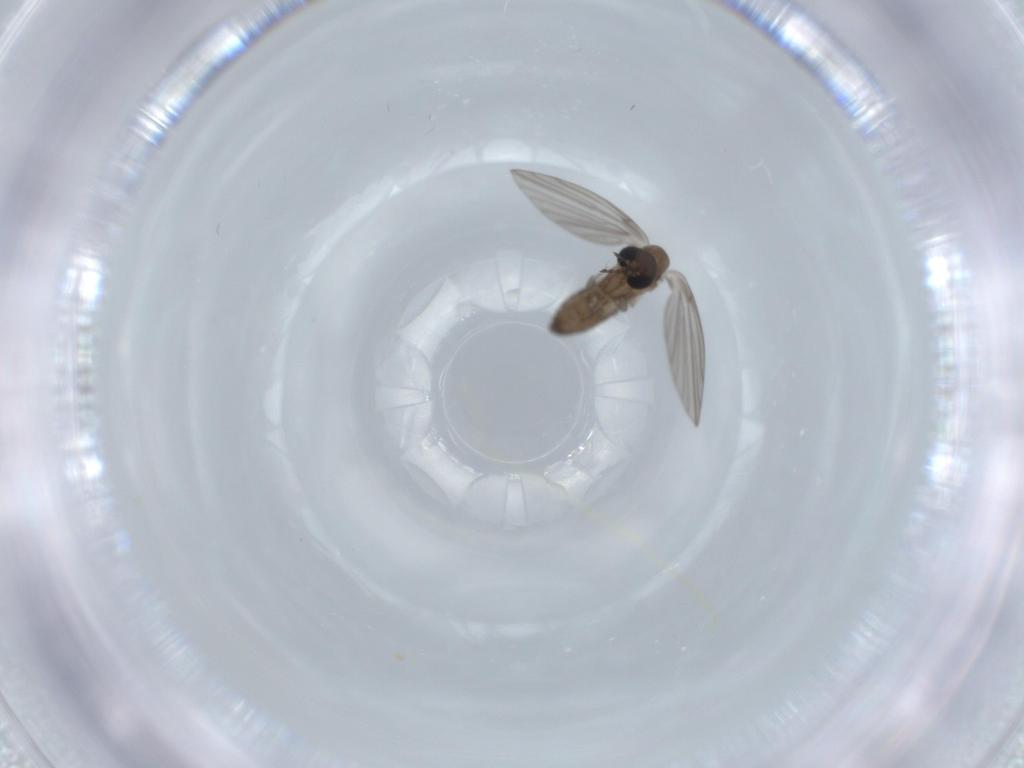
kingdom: Animalia
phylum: Arthropoda
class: Insecta
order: Diptera
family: Psychodidae
